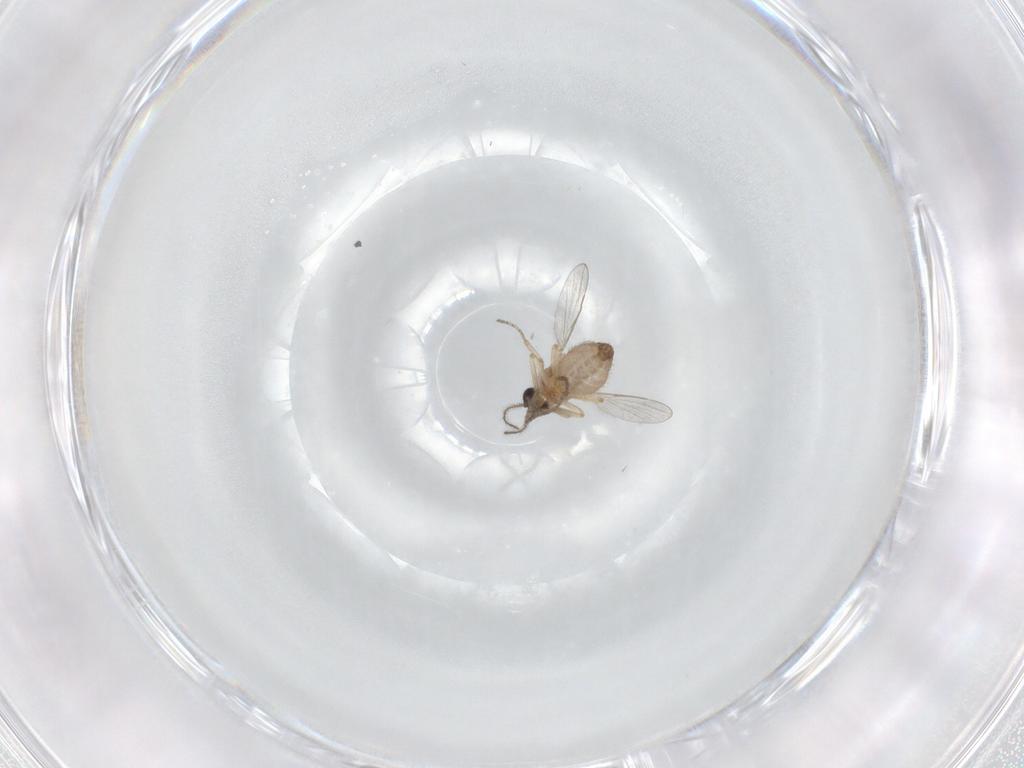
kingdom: Animalia
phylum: Arthropoda
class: Insecta
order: Diptera
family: Ceratopogonidae
